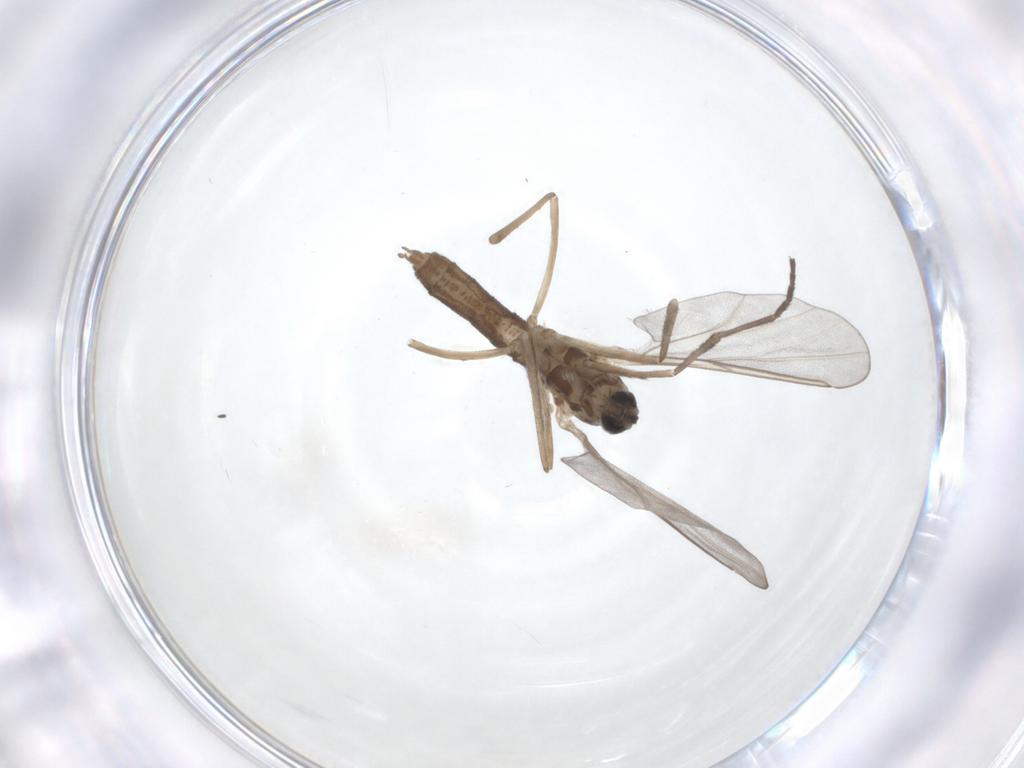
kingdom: Animalia
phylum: Arthropoda
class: Insecta
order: Diptera
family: Cecidomyiidae
